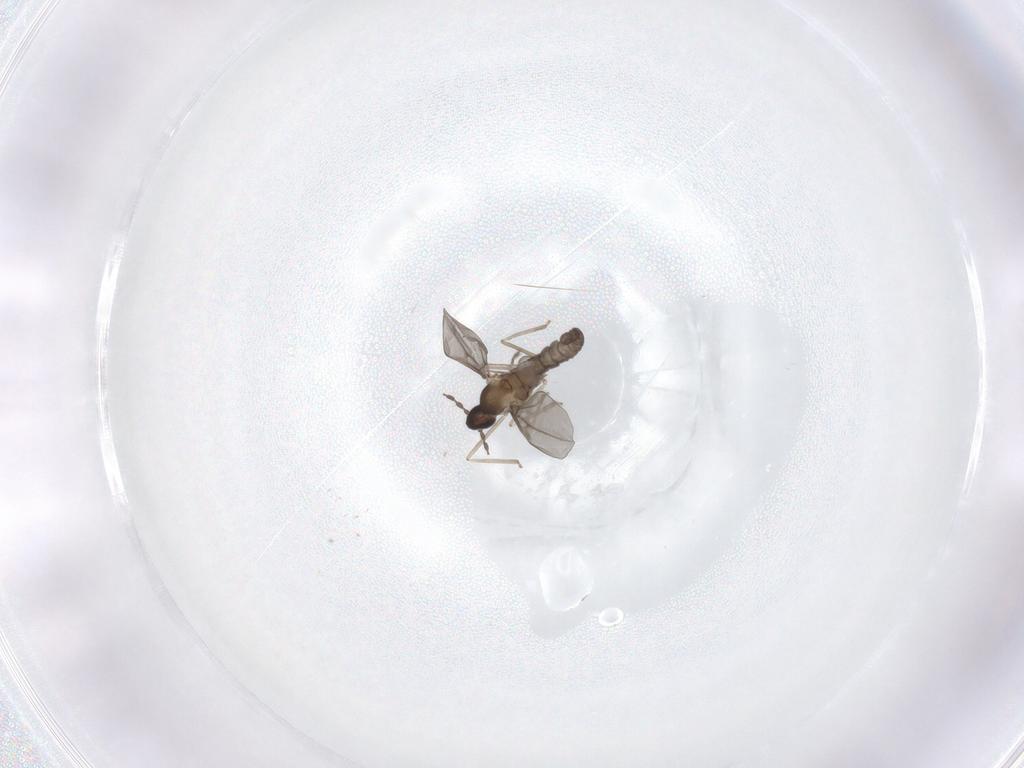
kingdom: Animalia
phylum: Arthropoda
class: Insecta
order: Diptera
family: Cecidomyiidae
